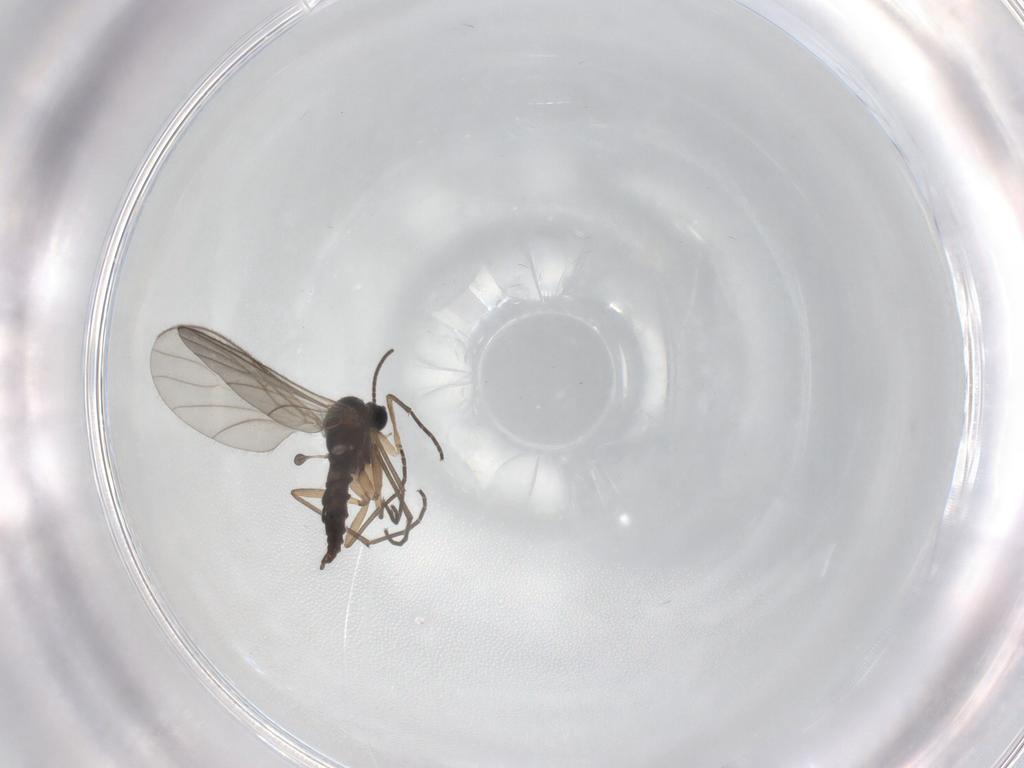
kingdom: Animalia
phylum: Arthropoda
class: Insecta
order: Diptera
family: Sciaridae
